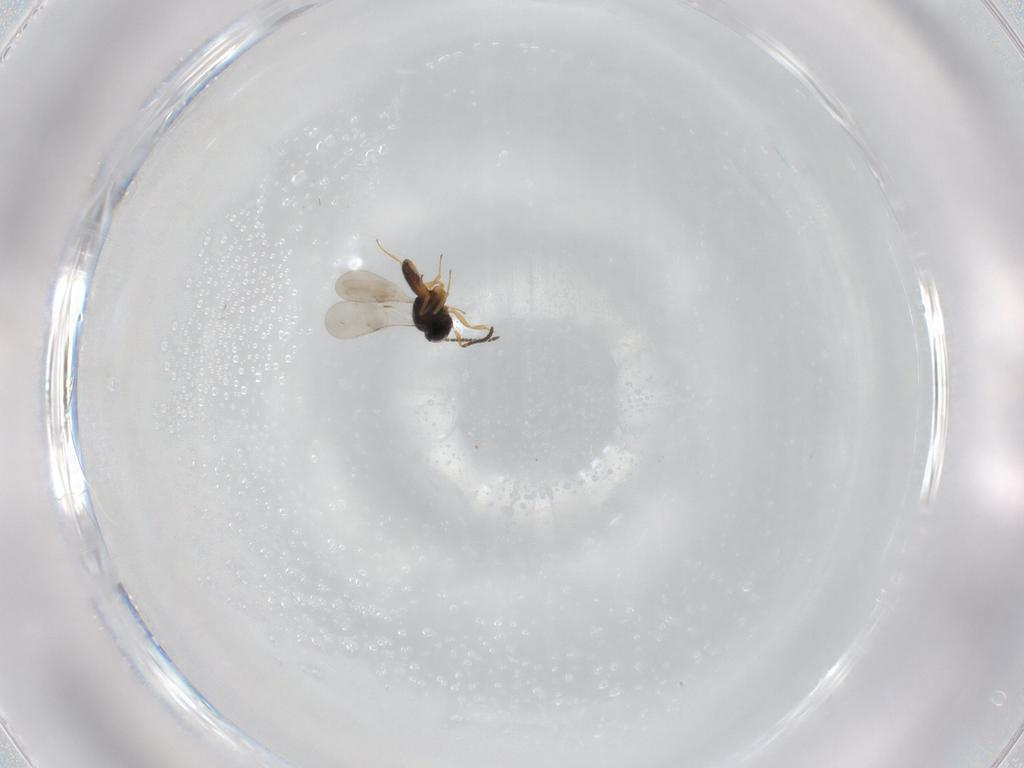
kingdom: Animalia
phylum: Arthropoda
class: Insecta
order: Hymenoptera
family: Scelionidae
